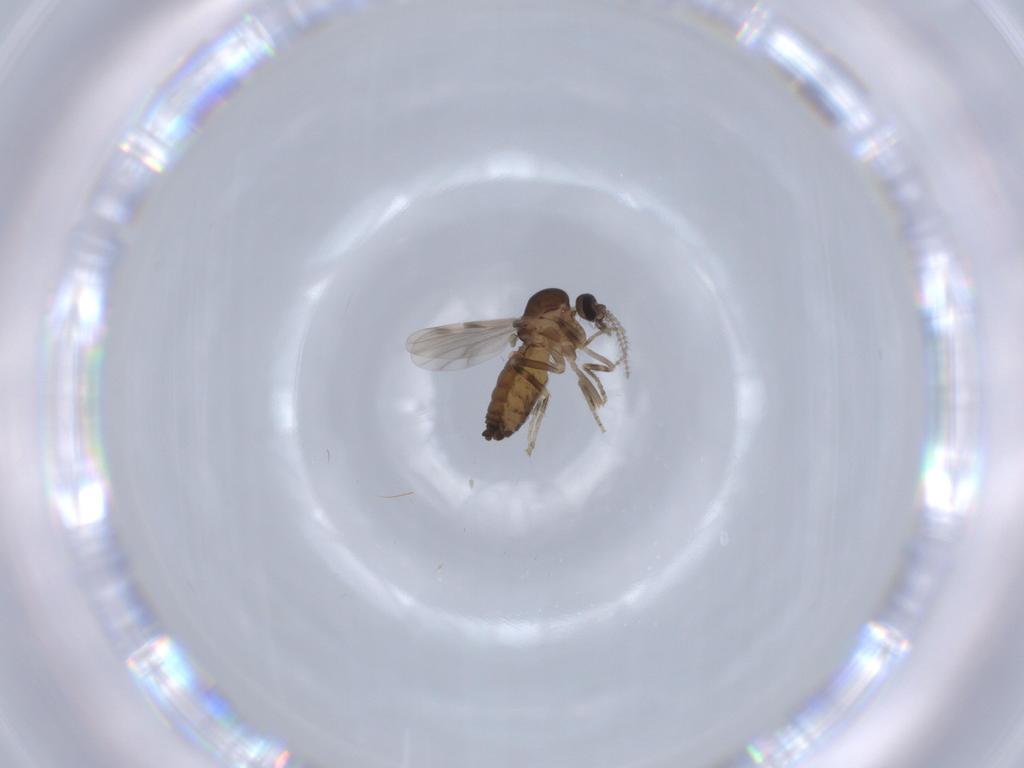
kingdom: Animalia
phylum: Arthropoda
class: Insecta
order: Diptera
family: Ceratopogonidae
